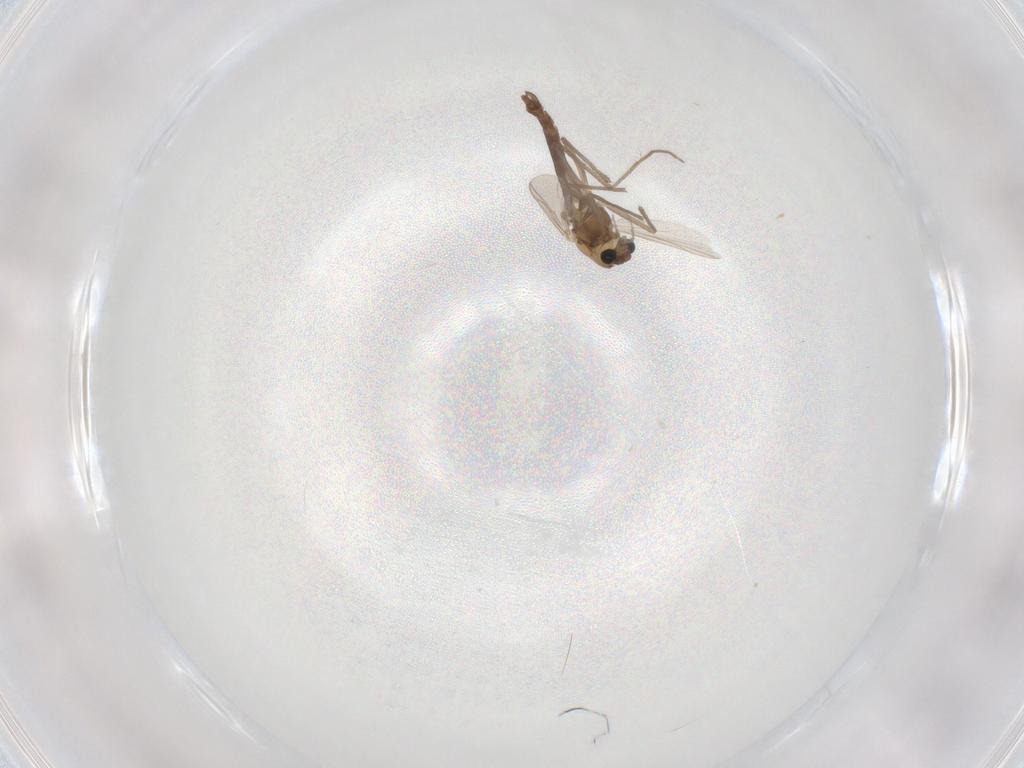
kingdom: Animalia
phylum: Arthropoda
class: Insecta
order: Diptera
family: Chironomidae
